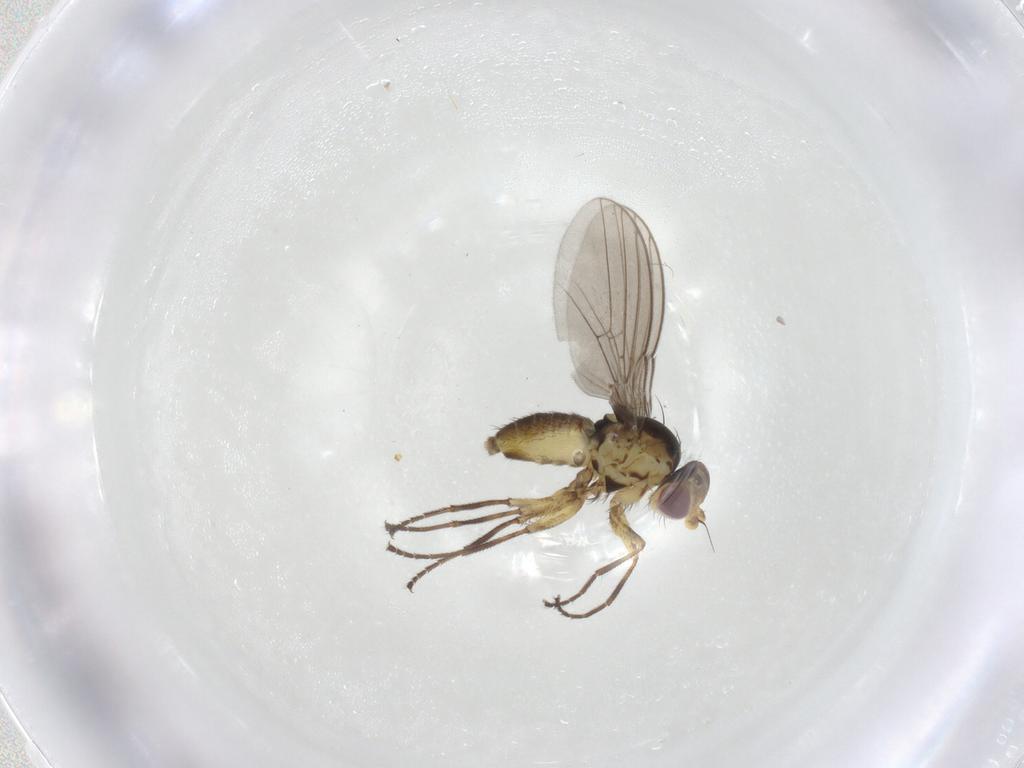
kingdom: Animalia
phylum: Arthropoda
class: Insecta
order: Diptera
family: Agromyzidae
